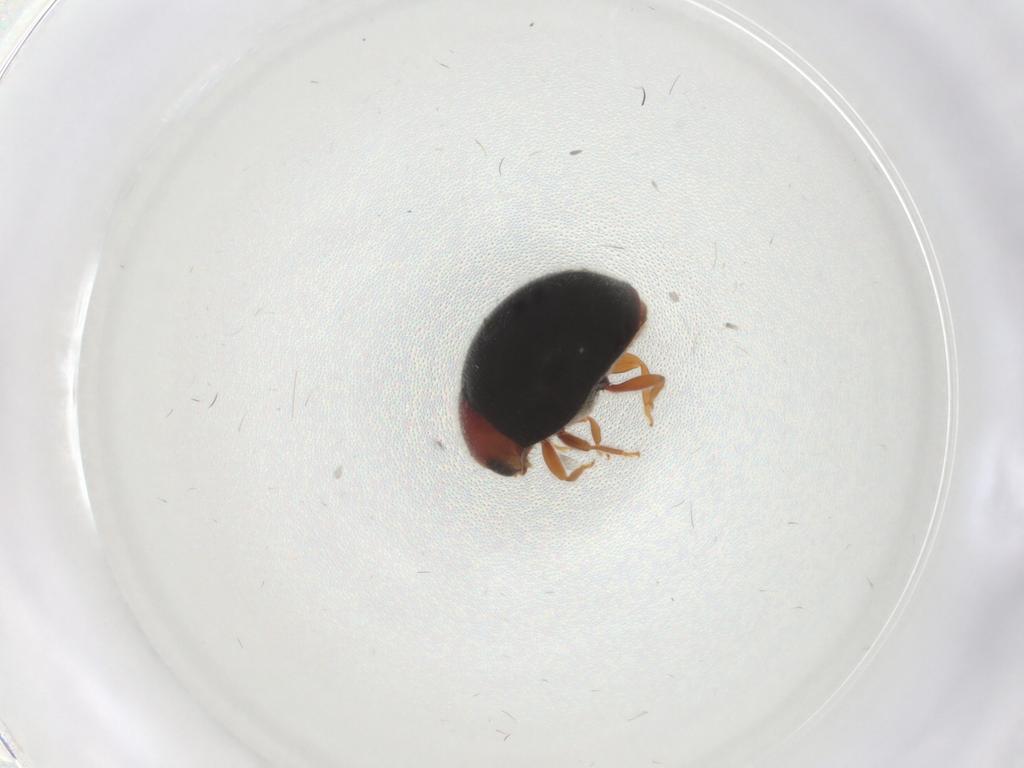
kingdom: Animalia
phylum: Arthropoda
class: Insecta
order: Coleoptera
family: Coccinellidae
